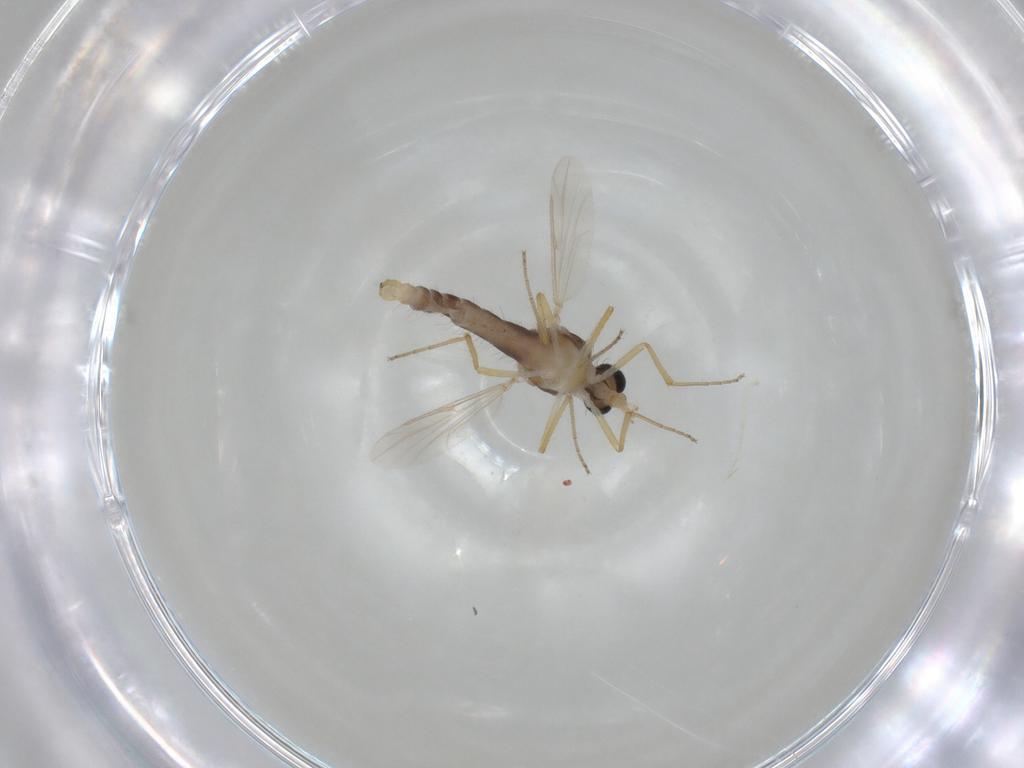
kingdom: Animalia
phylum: Arthropoda
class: Insecta
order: Diptera
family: Ceratopogonidae
